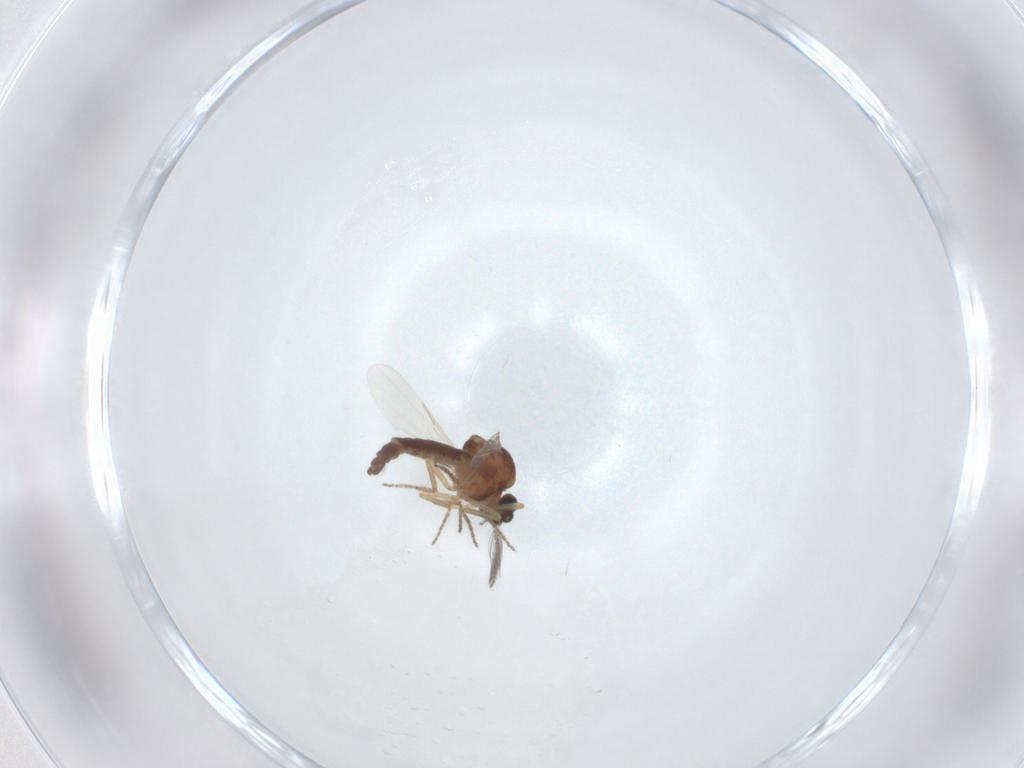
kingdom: Animalia
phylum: Arthropoda
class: Insecta
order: Diptera
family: Ceratopogonidae
